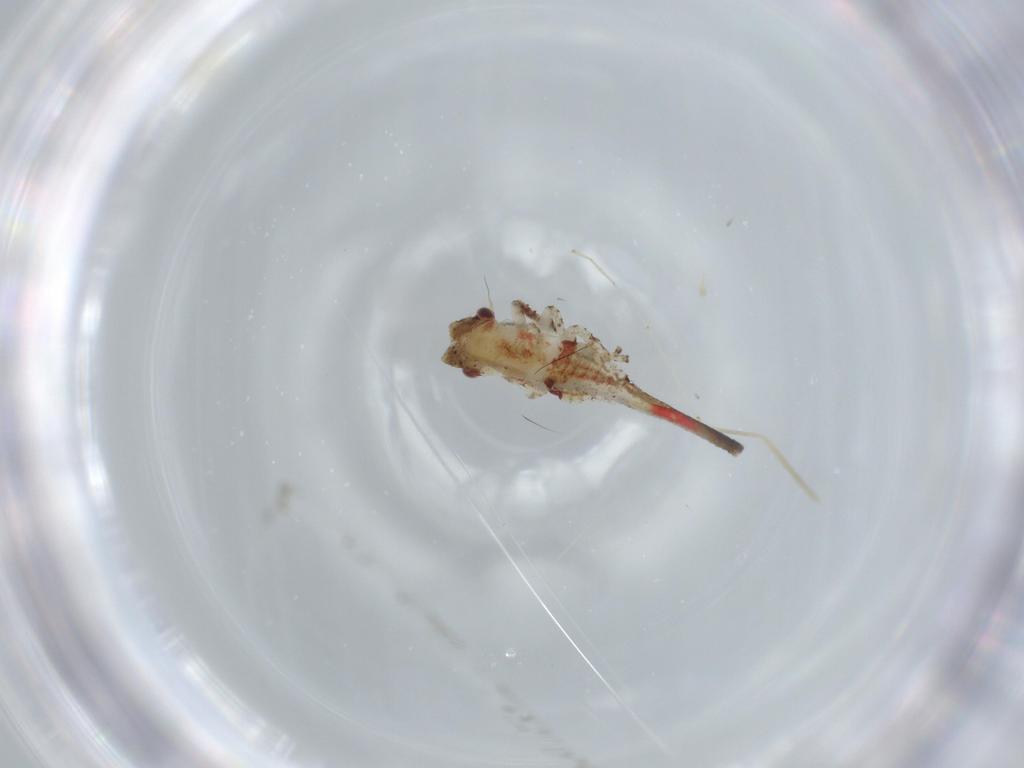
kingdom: Animalia
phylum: Arthropoda
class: Insecta
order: Hemiptera
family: Membracidae
